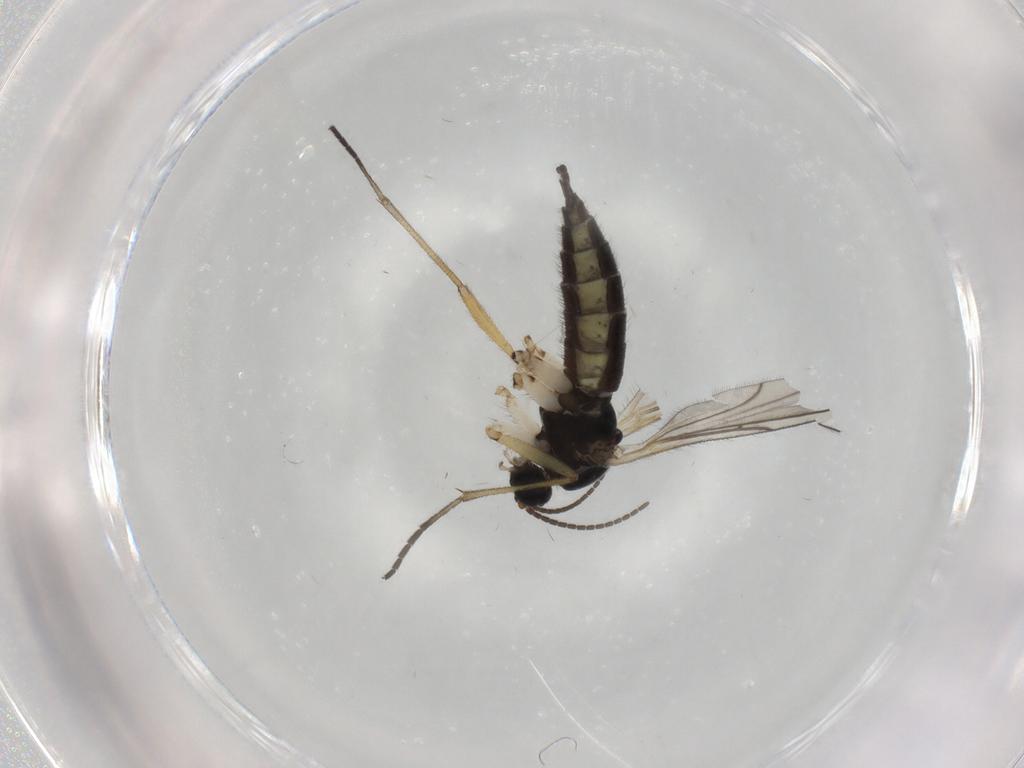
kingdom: Animalia
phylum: Arthropoda
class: Insecta
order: Diptera
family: Sciaridae
